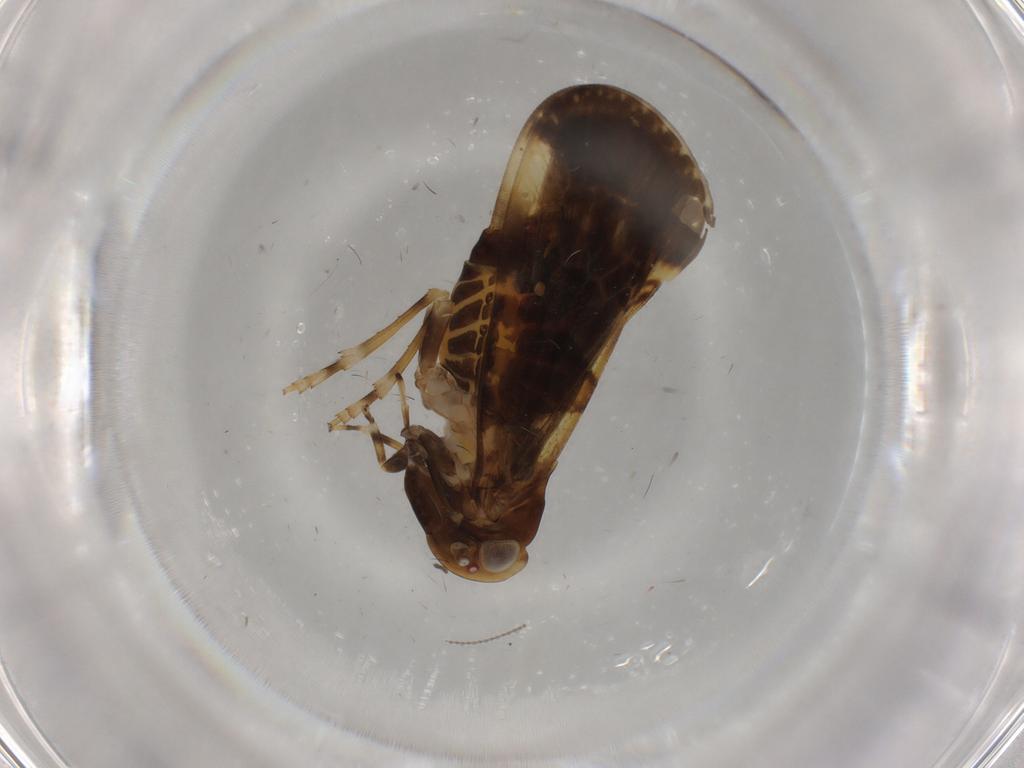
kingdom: Animalia
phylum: Arthropoda
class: Insecta
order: Hemiptera
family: Cixiidae
